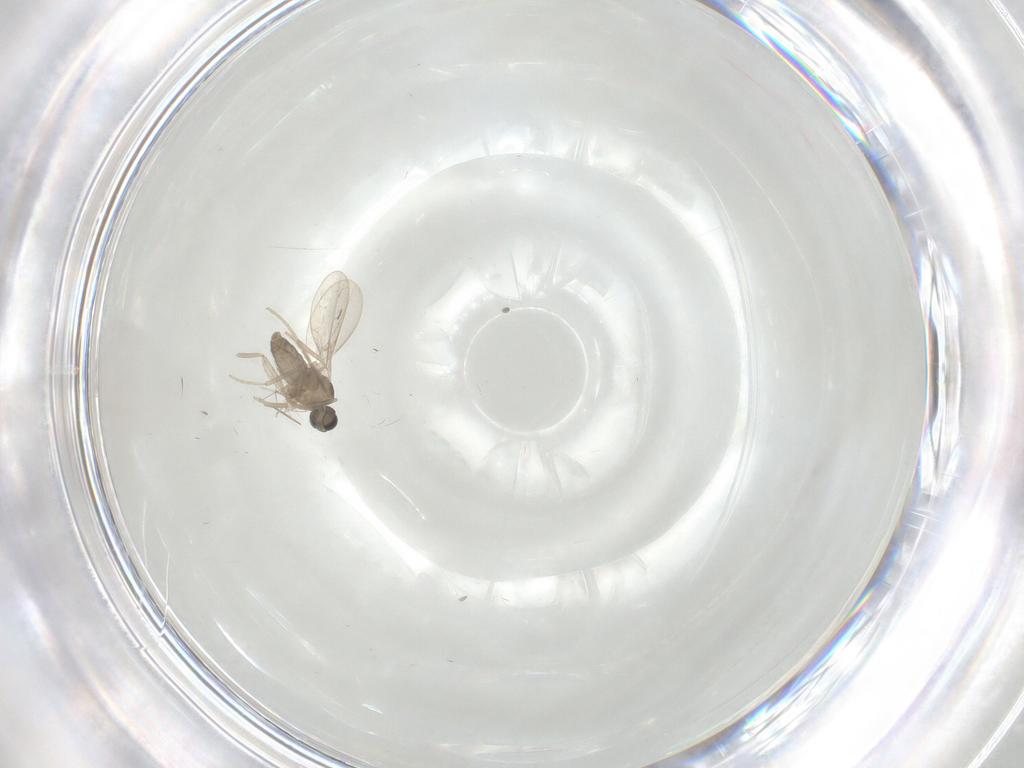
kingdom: Animalia
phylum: Arthropoda
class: Insecta
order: Diptera
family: Chironomidae
